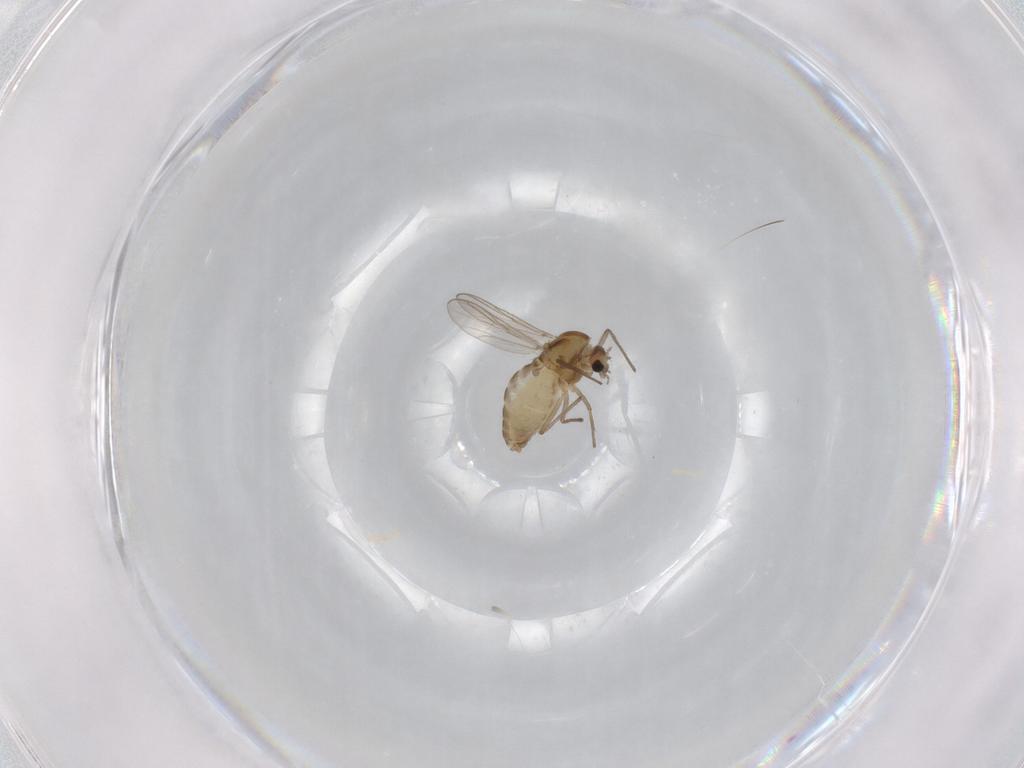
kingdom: Animalia
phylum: Arthropoda
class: Insecta
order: Diptera
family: Chironomidae
